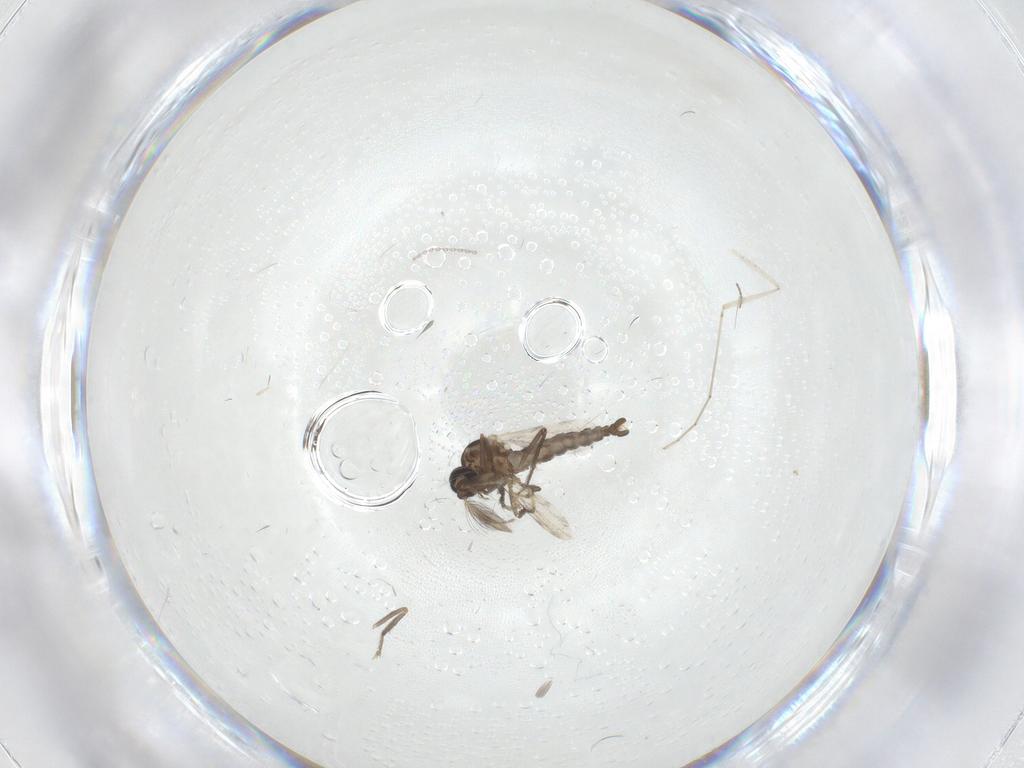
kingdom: Animalia
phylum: Arthropoda
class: Insecta
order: Diptera
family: Ceratopogonidae
